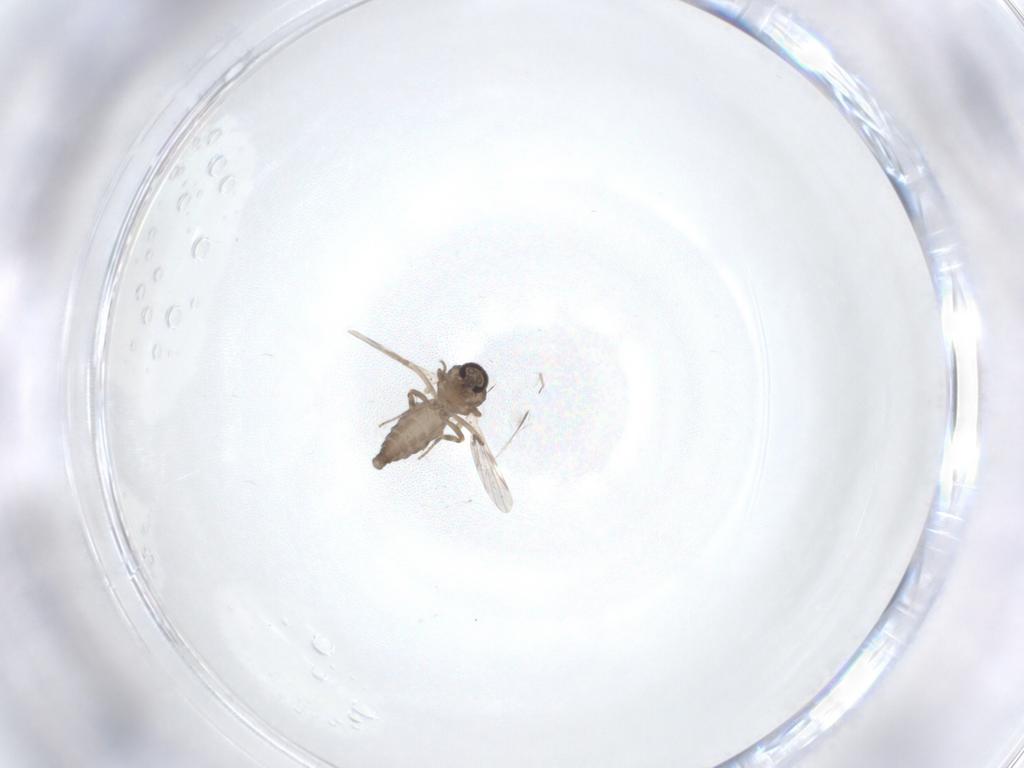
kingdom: Animalia
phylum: Arthropoda
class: Insecta
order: Diptera
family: Ceratopogonidae
